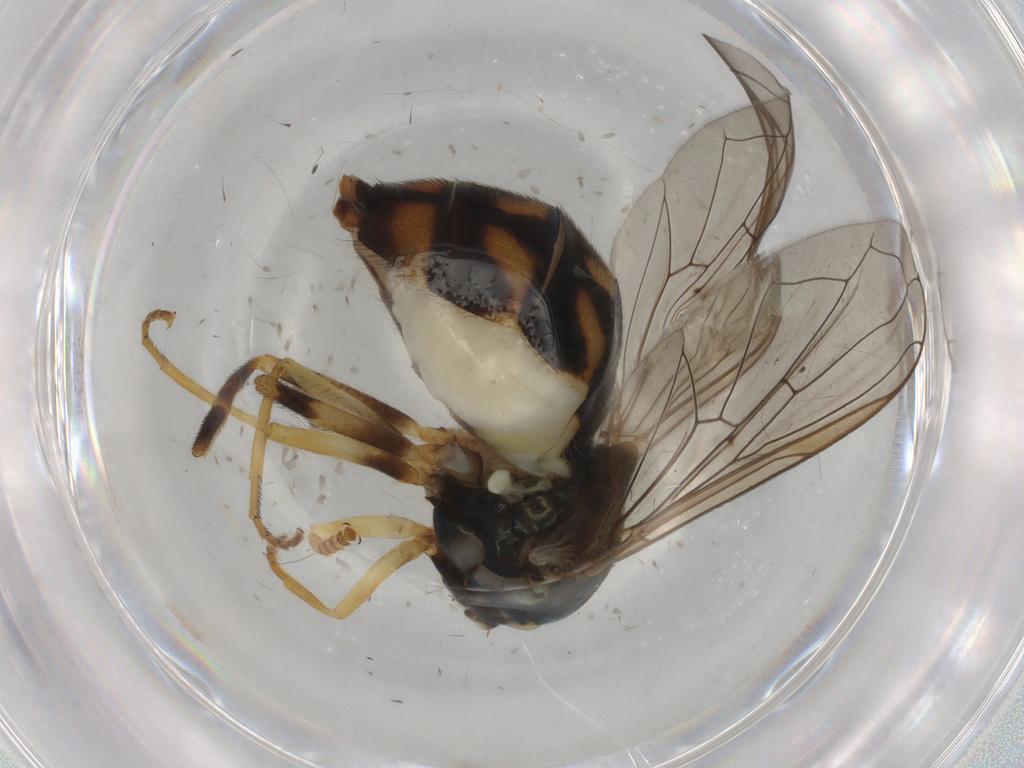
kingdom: Animalia
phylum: Arthropoda
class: Insecta
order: Diptera
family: Syrphidae
